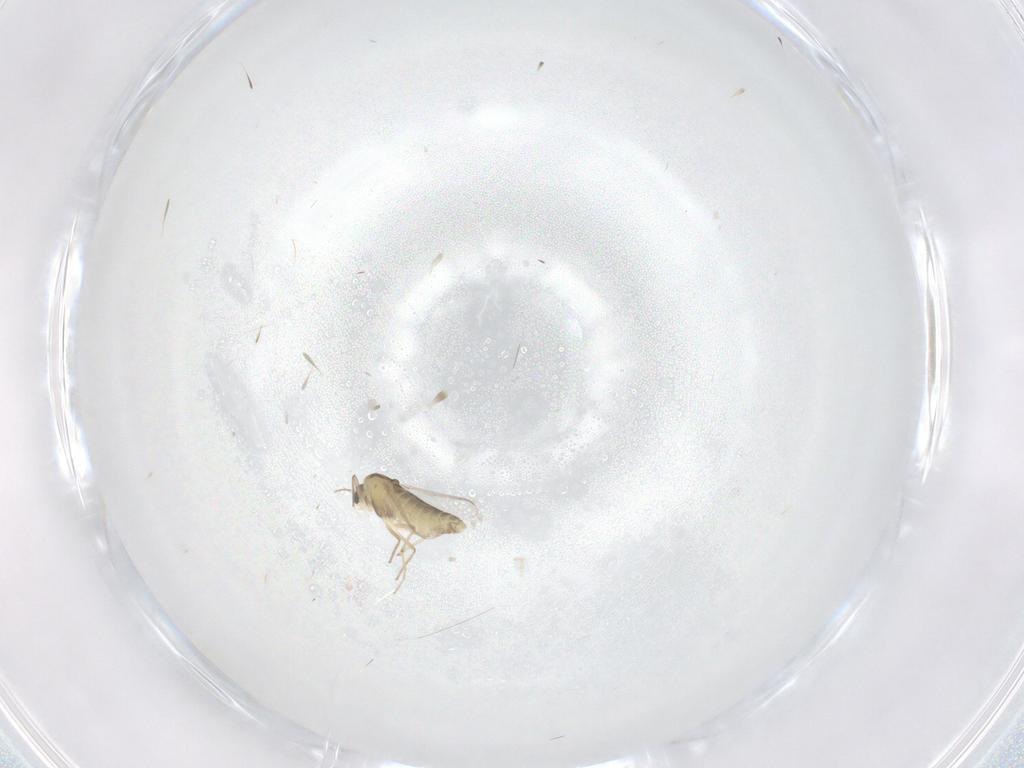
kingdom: Animalia
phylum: Arthropoda
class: Insecta
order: Diptera
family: Chironomidae
